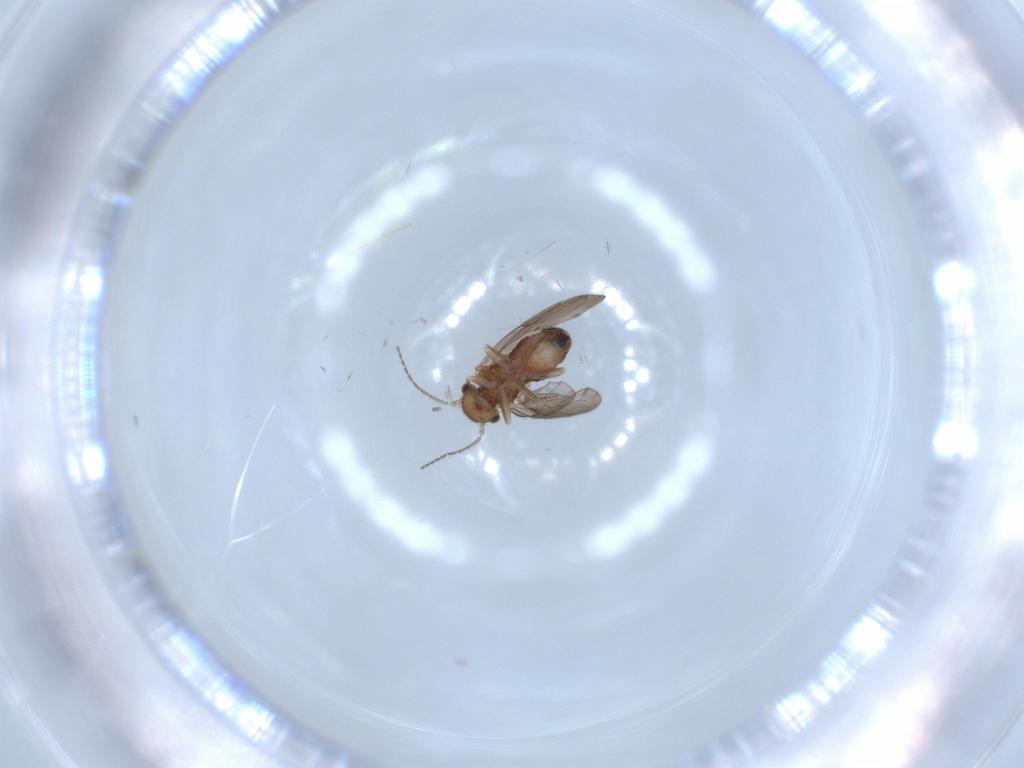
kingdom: Animalia
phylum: Arthropoda
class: Insecta
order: Psocodea
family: Ectopsocidae
